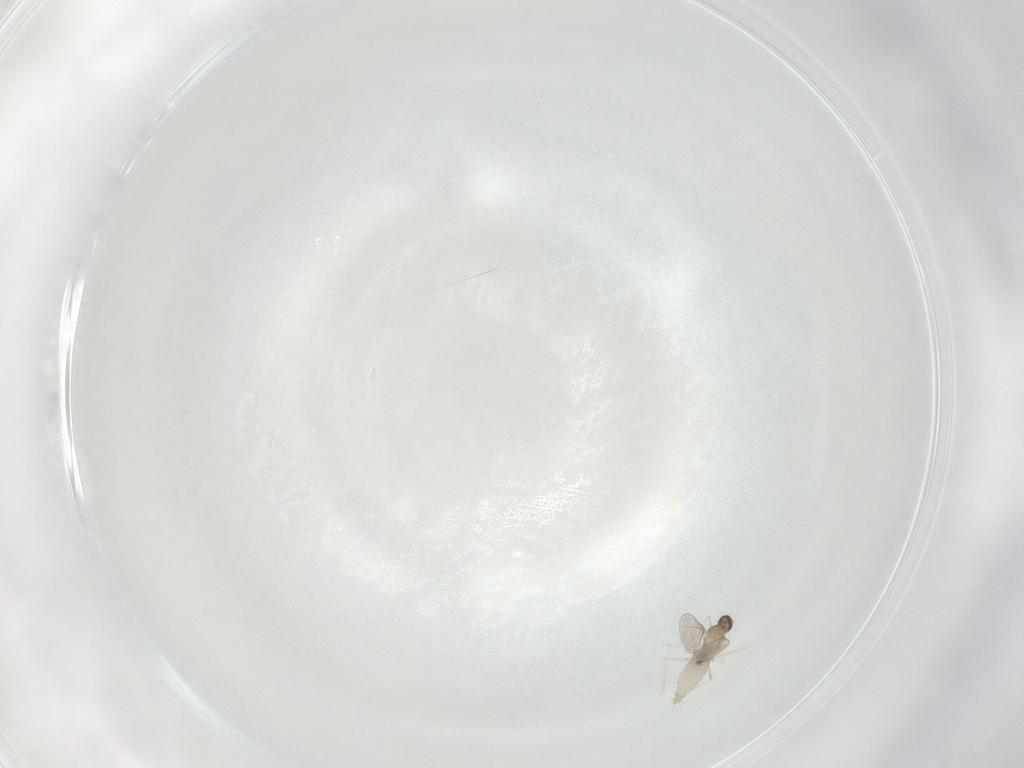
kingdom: Animalia
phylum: Arthropoda
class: Insecta
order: Diptera
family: Cecidomyiidae
